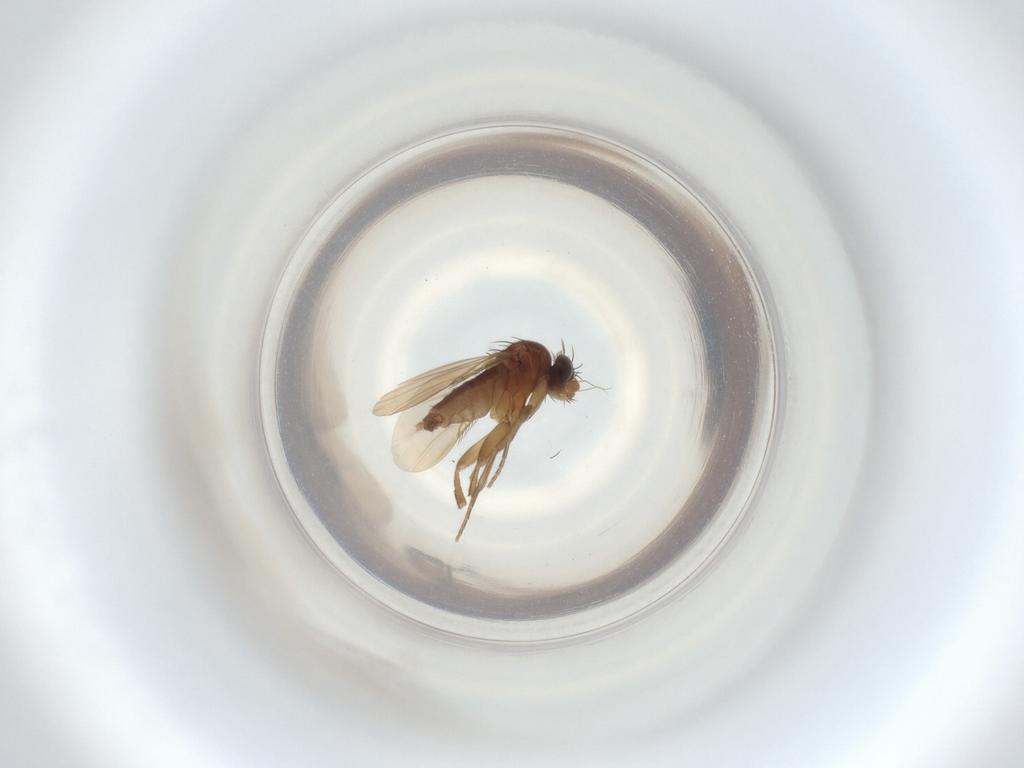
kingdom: Animalia
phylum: Arthropoda
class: Insecta
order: Diptera
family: Phoridae
